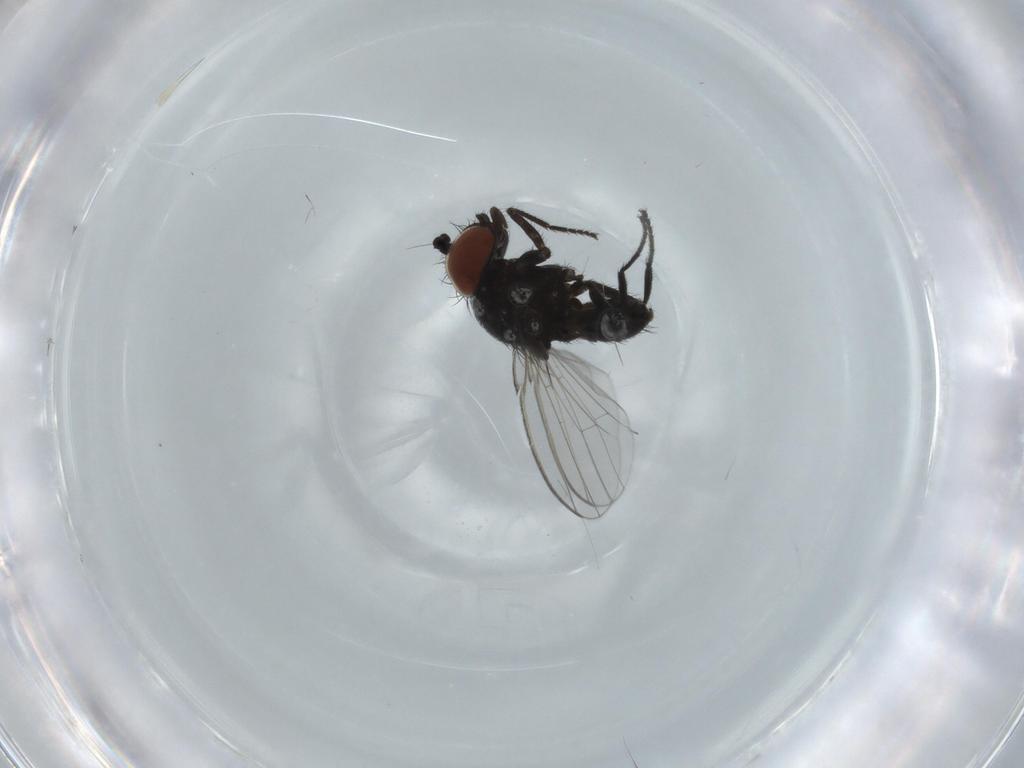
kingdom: Animalia
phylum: Arthropoda
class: Insecta
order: Diptera
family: Milichiidae
